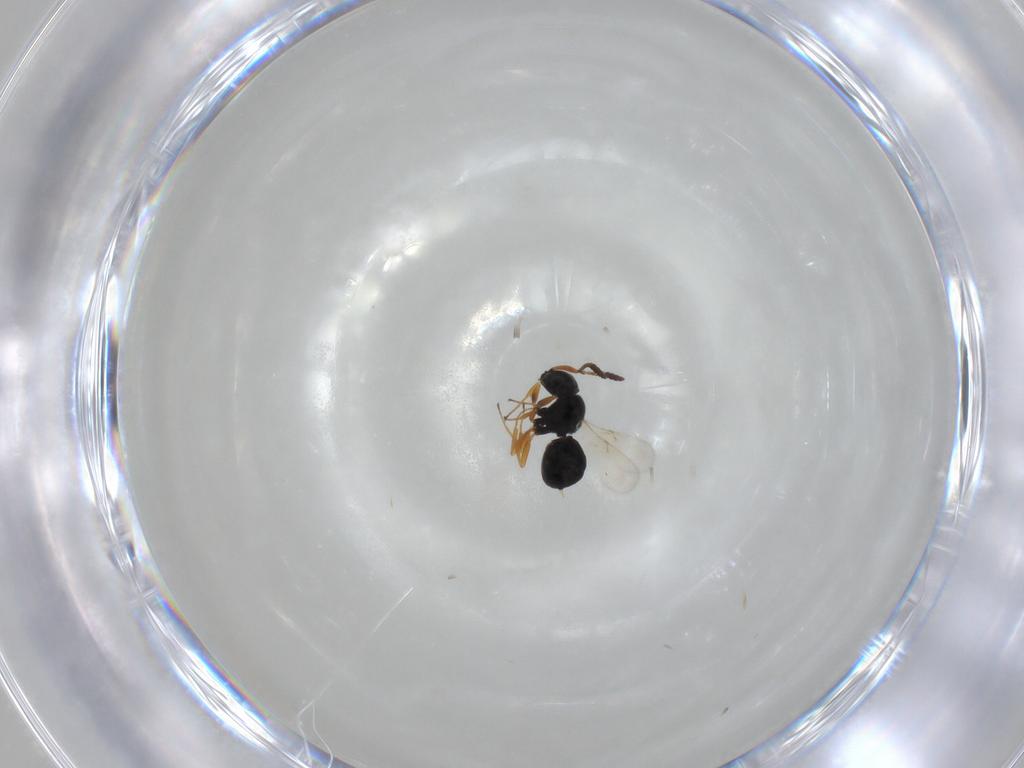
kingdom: Animalia
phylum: Arthropoda
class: Insecta
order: Hymenoptera
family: Scelionidae
